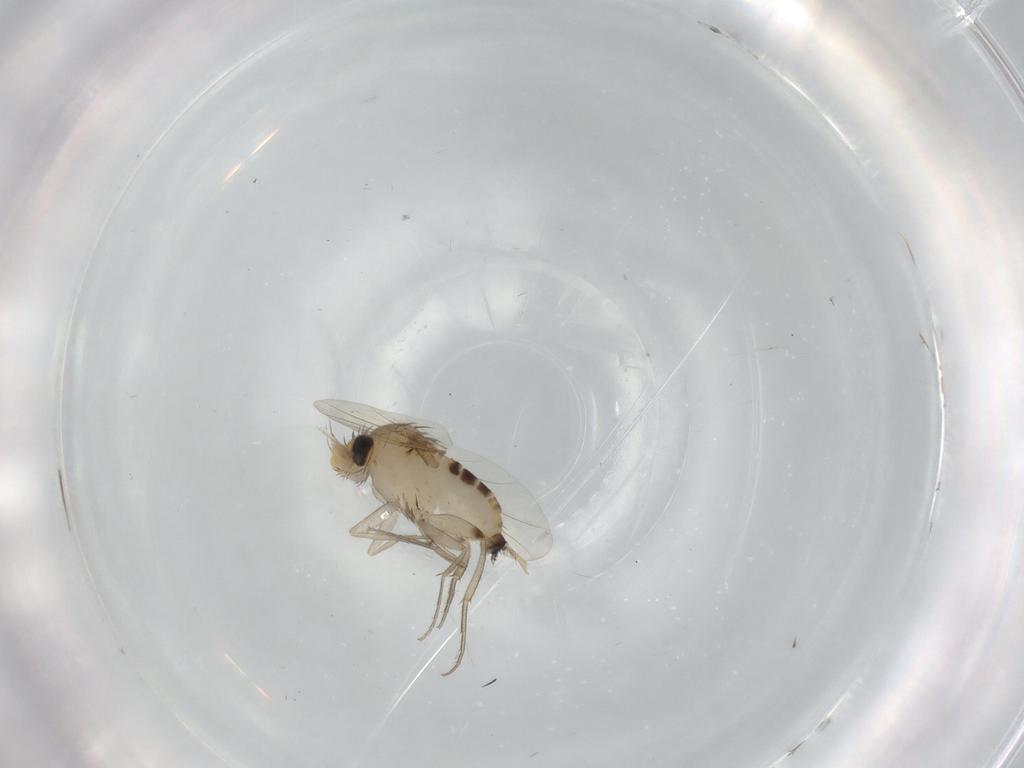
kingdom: Animalia
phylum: Arthropoda
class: Insecta
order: Diptera
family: Phoridae
